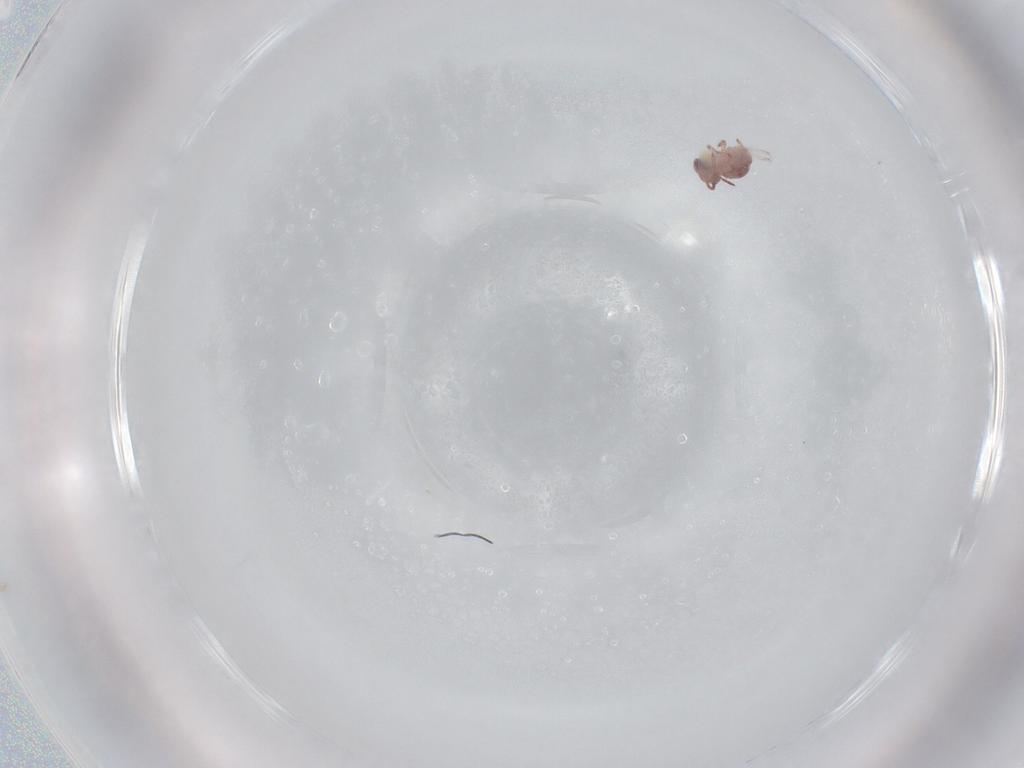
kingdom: Animalia
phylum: Arthropoda
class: Collembola
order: Symphypleona
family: Sminthurididae
